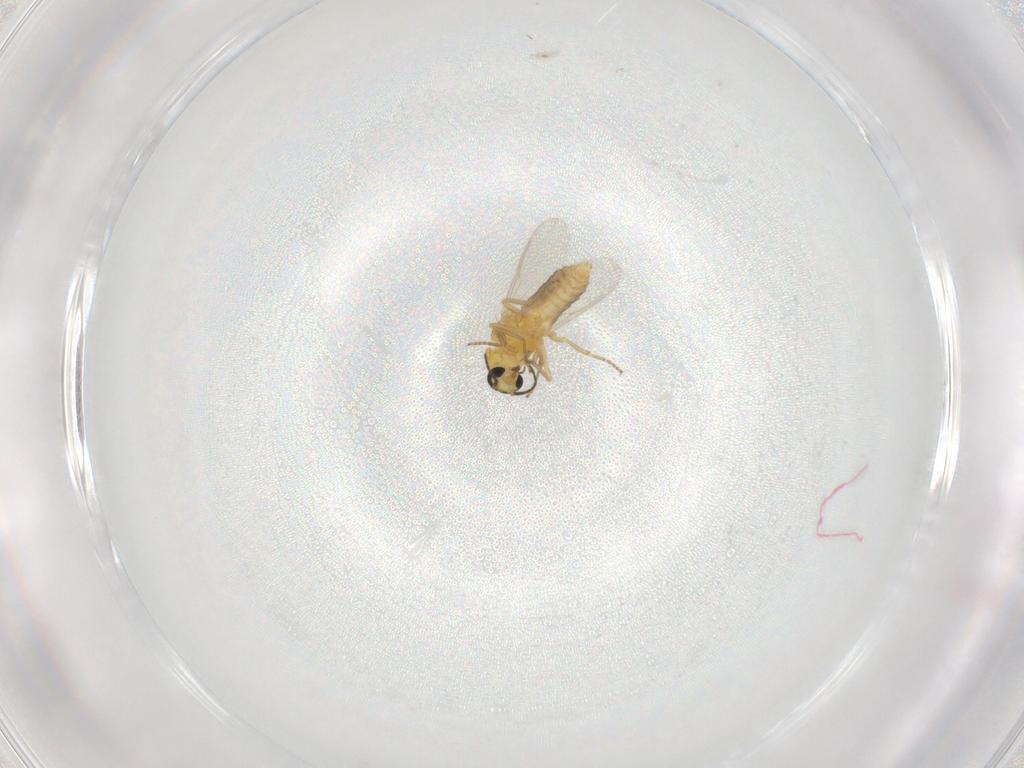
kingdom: Animalia
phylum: Arthropoda
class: Insecta
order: Diptera
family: Ceratopogonidae
